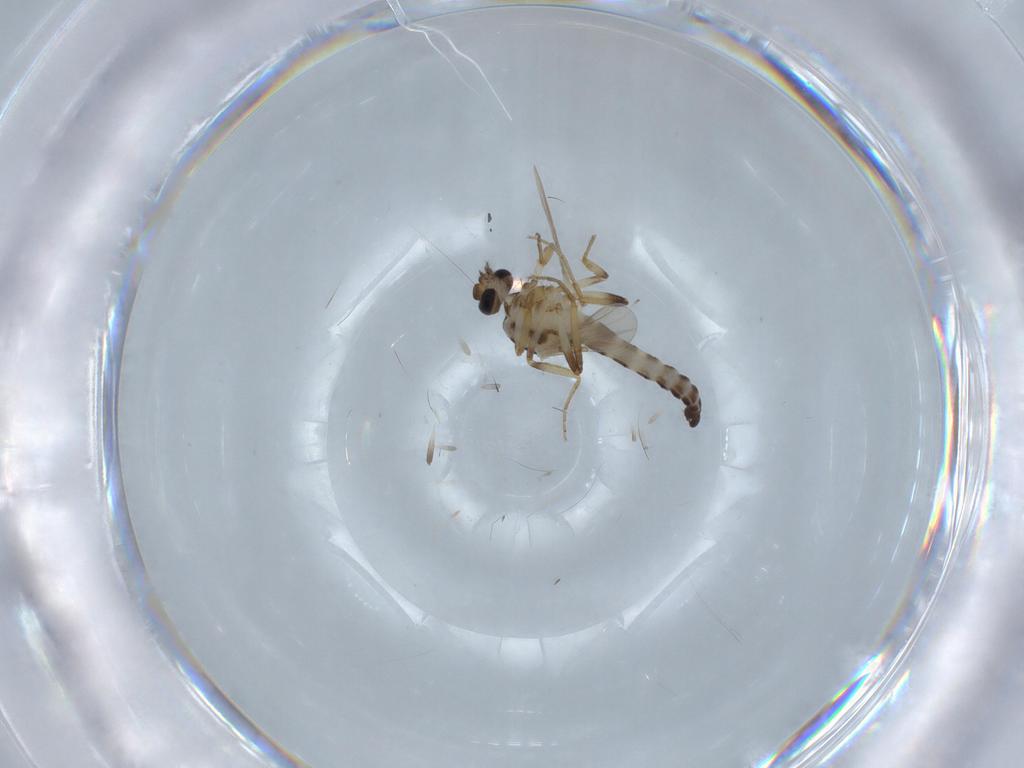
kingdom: Animalia
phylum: Arthropoda
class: Insecta
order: Diptera
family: Ceratopogonidae
